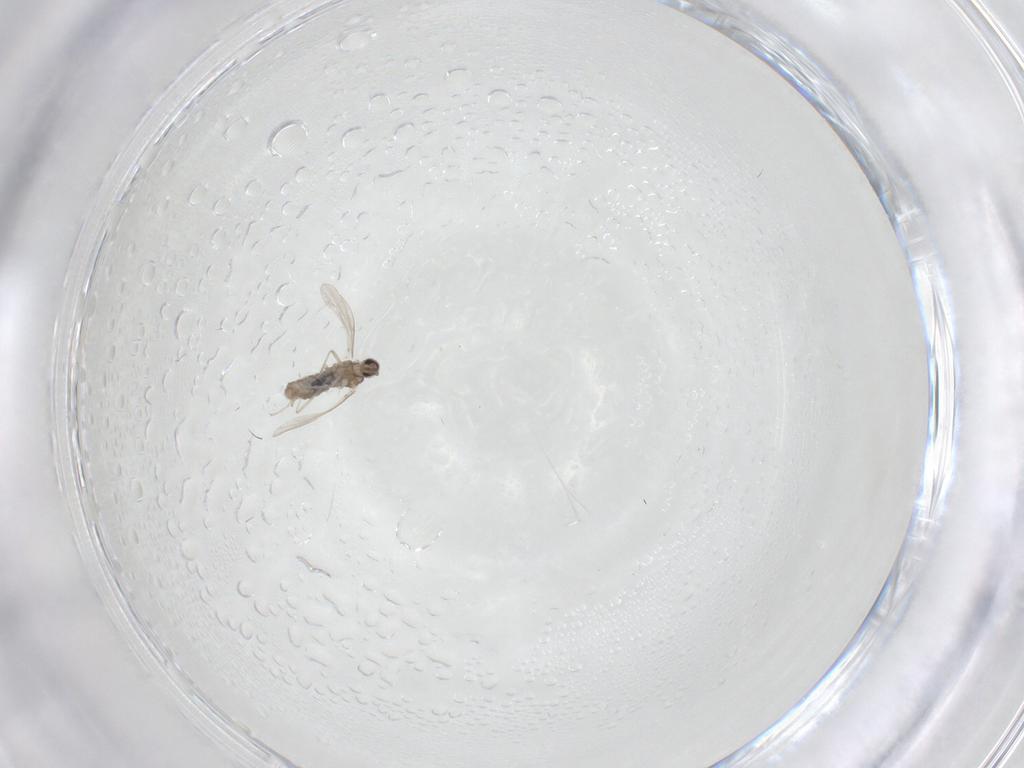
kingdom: Animalia
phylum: Arthropoda
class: Insecta
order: Diptera
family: Cecidomyiidae
